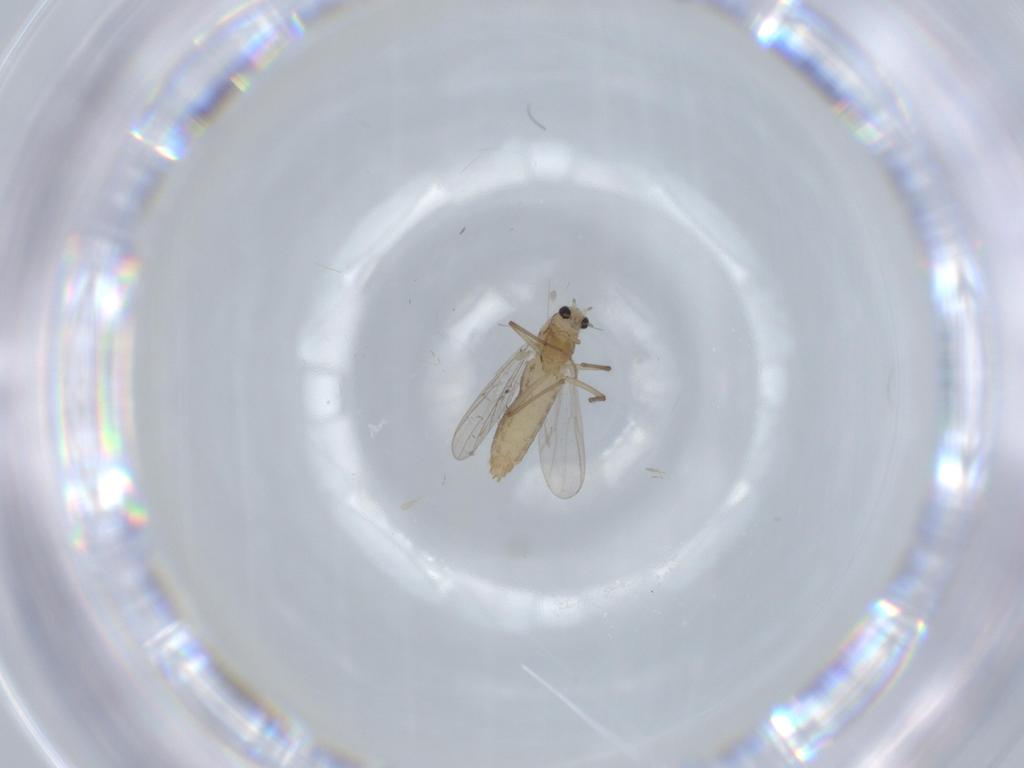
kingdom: Animalia
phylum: Arthropoda
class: Insecta
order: Diptera
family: Chironomidae
